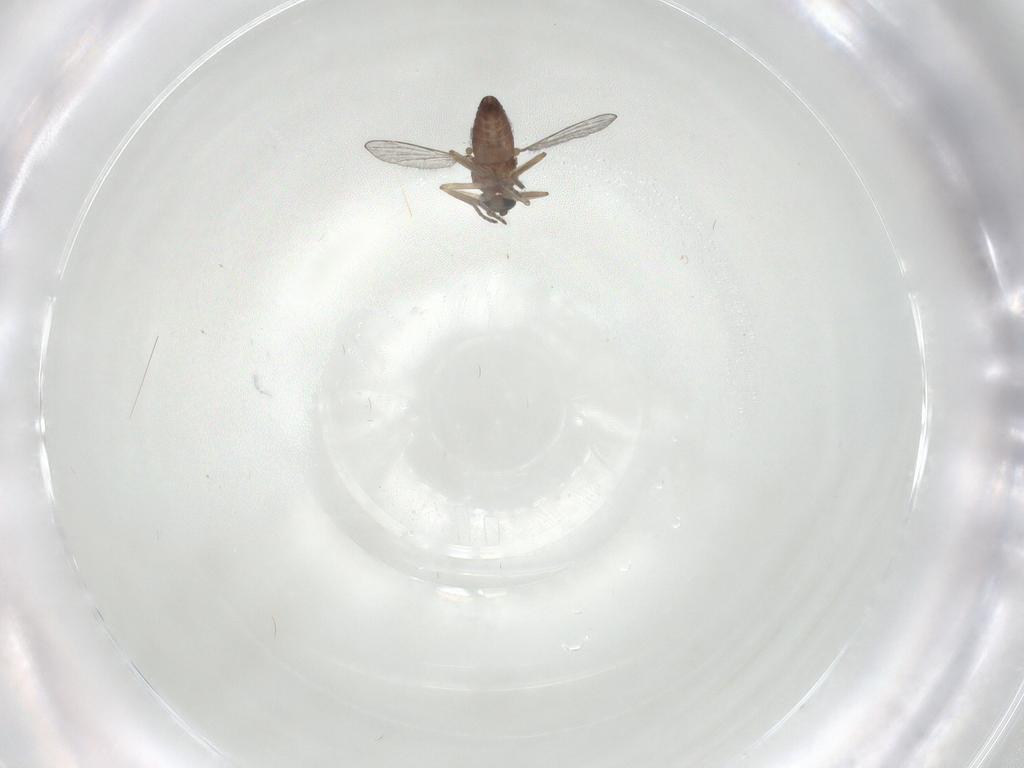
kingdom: Animalia
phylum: Arthropoda
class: Insecta
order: Diptera
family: Ceratopogonidae
